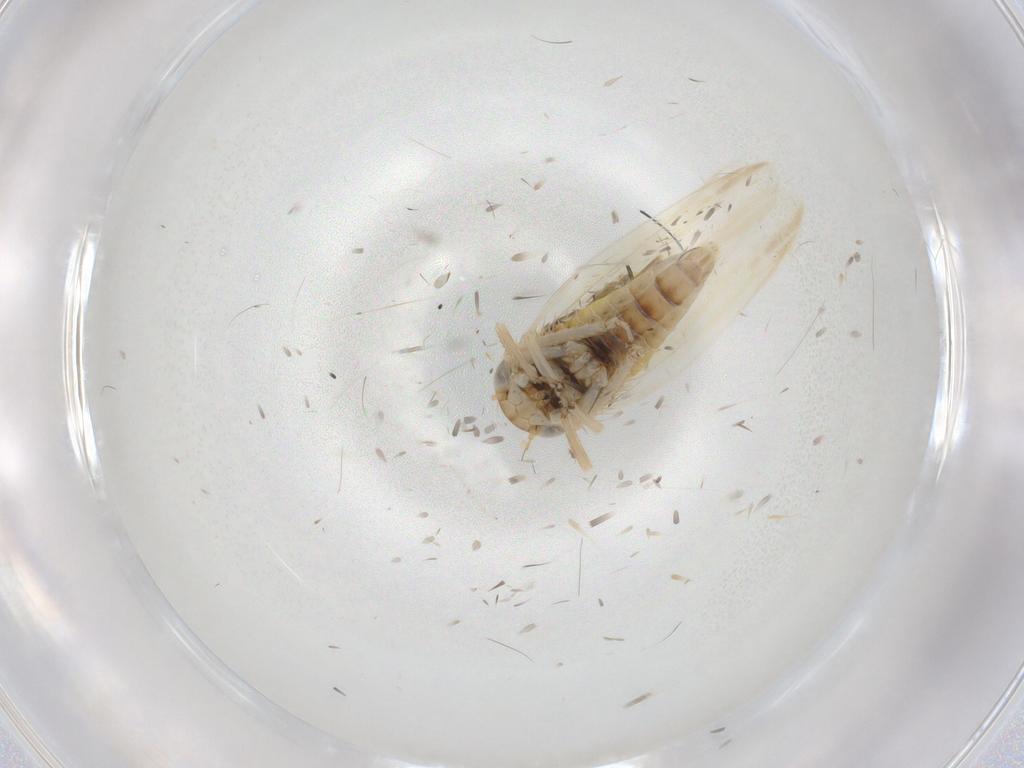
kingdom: Animalia
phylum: Arthropoda
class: Insecta
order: Hemiptera
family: Cicadellidae
